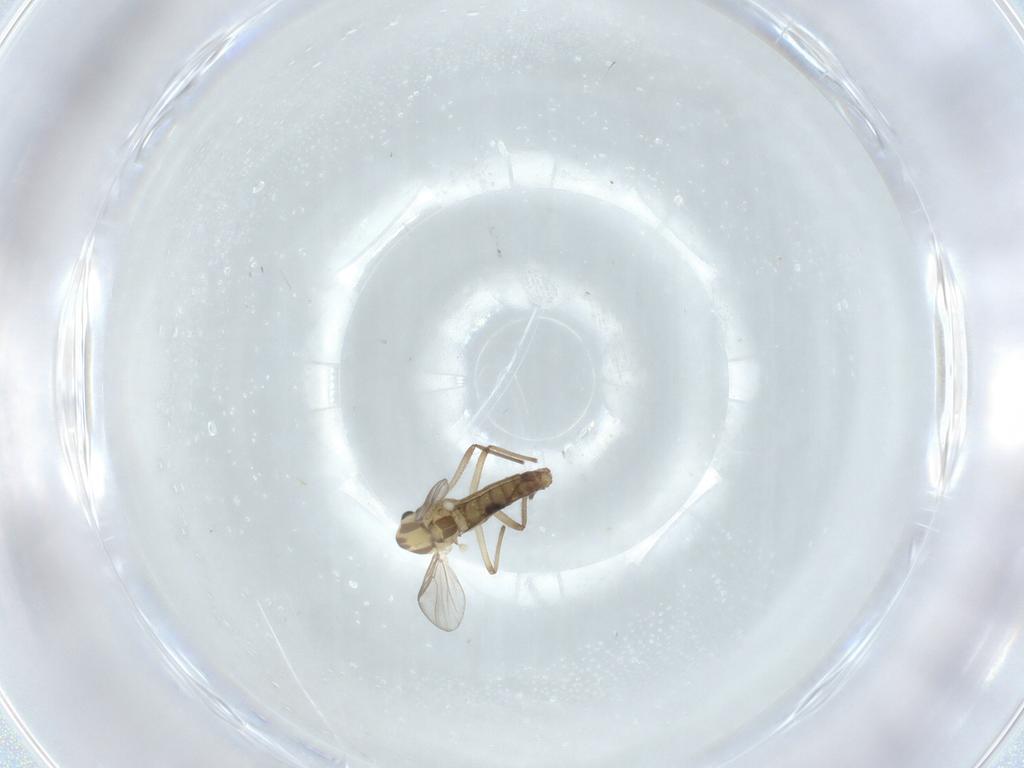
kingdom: Animalia
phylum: Arthropoda
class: Insecta
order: Diptera
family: Chironomidae
